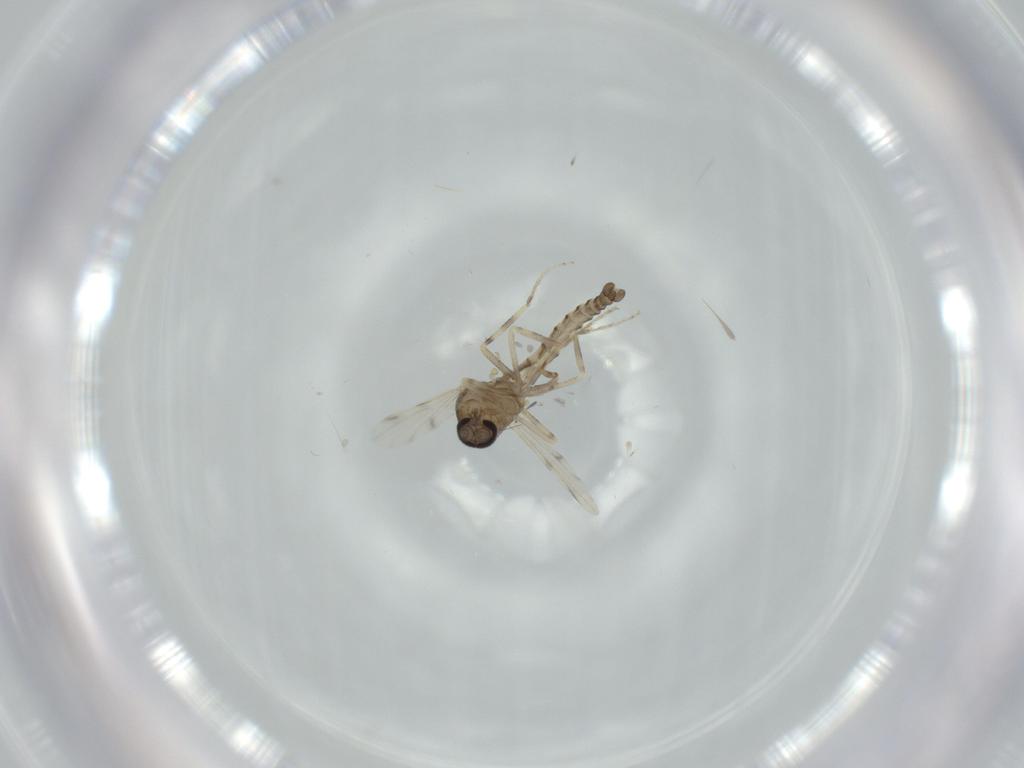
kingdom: Animalia
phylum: Arthropoda
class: Insecta
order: Diptera
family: Ceratopogonidae
